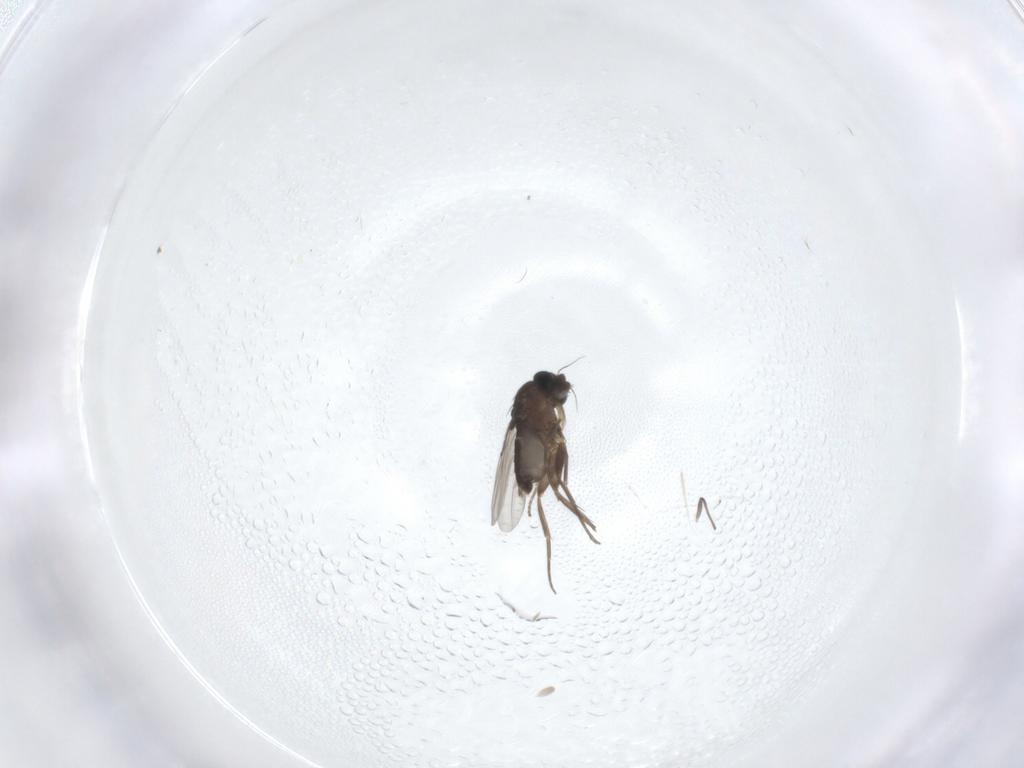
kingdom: Animalia
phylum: Arthropoda
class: Insecta
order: Diptera
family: Phoridae
